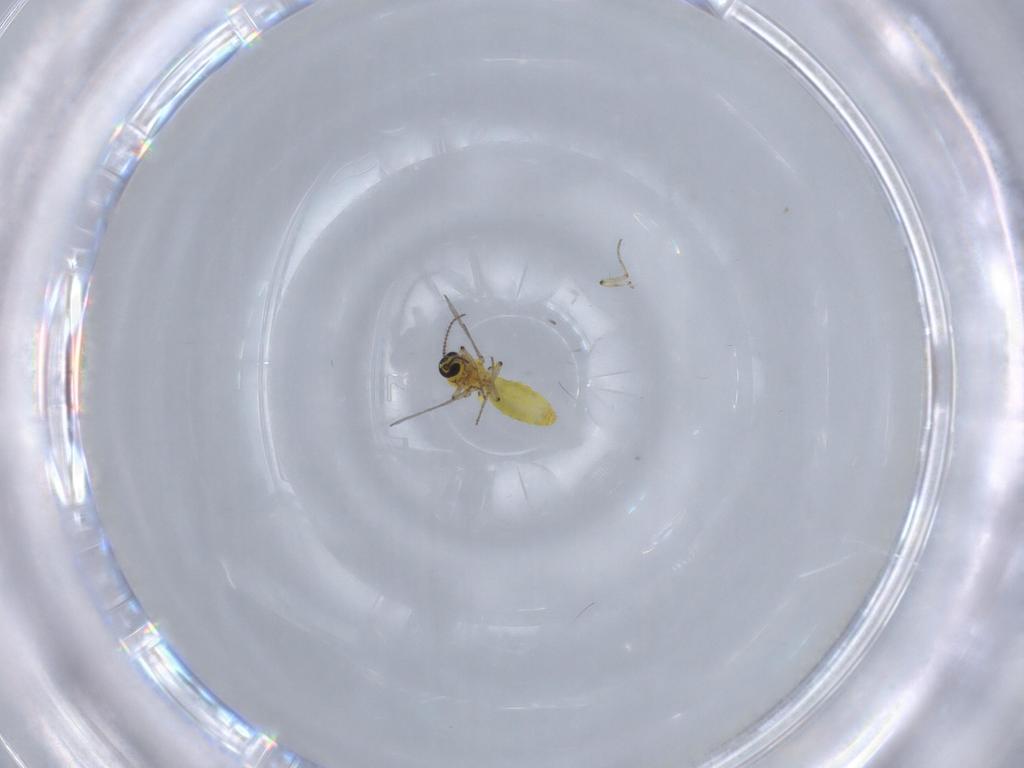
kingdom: Animalia
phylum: Arthropoda
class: Insecta
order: Diptera
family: Ceratopogonidae
